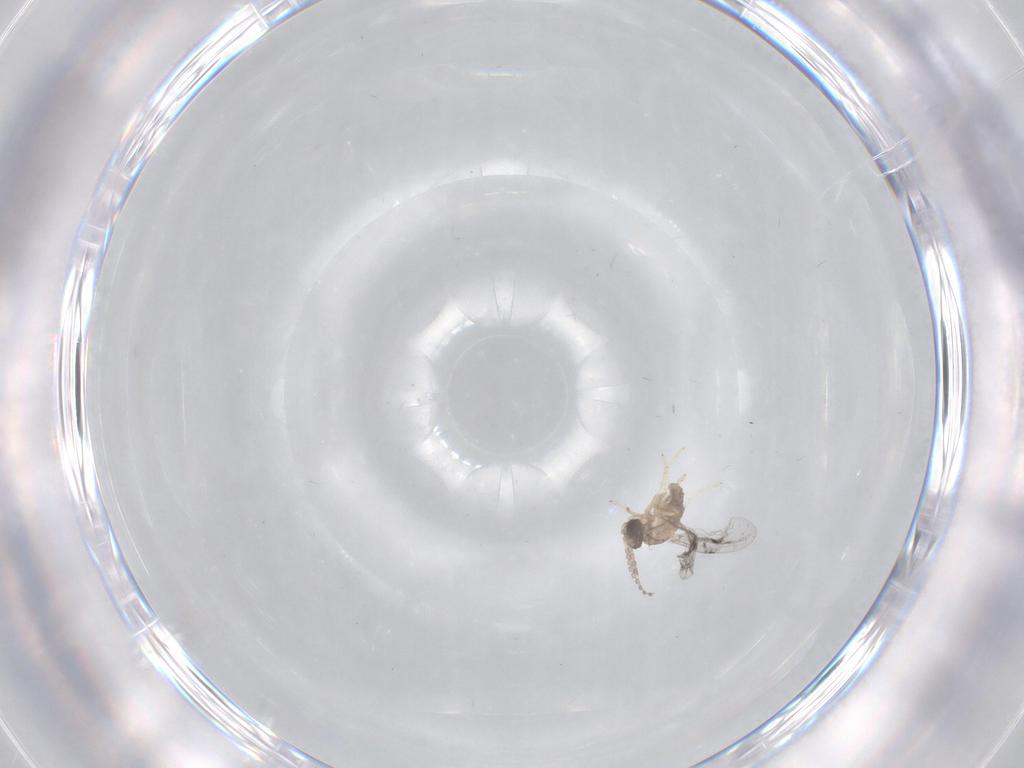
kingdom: Animalia
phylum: Arthropoda
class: Insecta
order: Diptera
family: Cecidomyiidae
